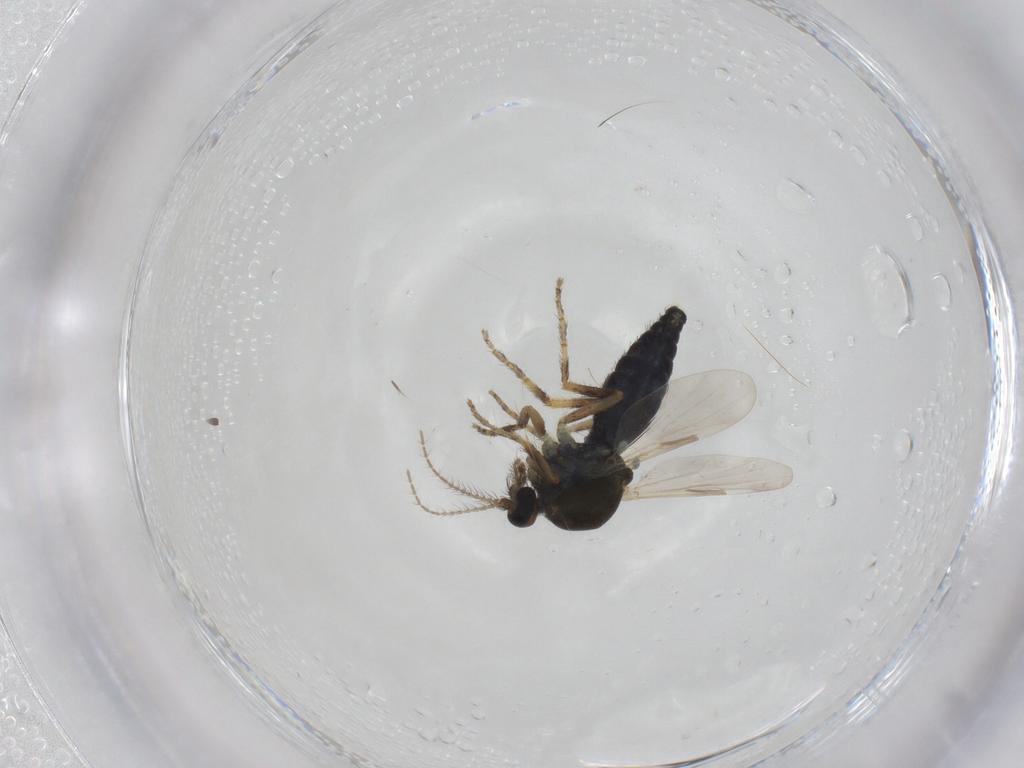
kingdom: Animalia
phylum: Arthropoda
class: Insecta
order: Diptera
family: Ceratopogonidae
